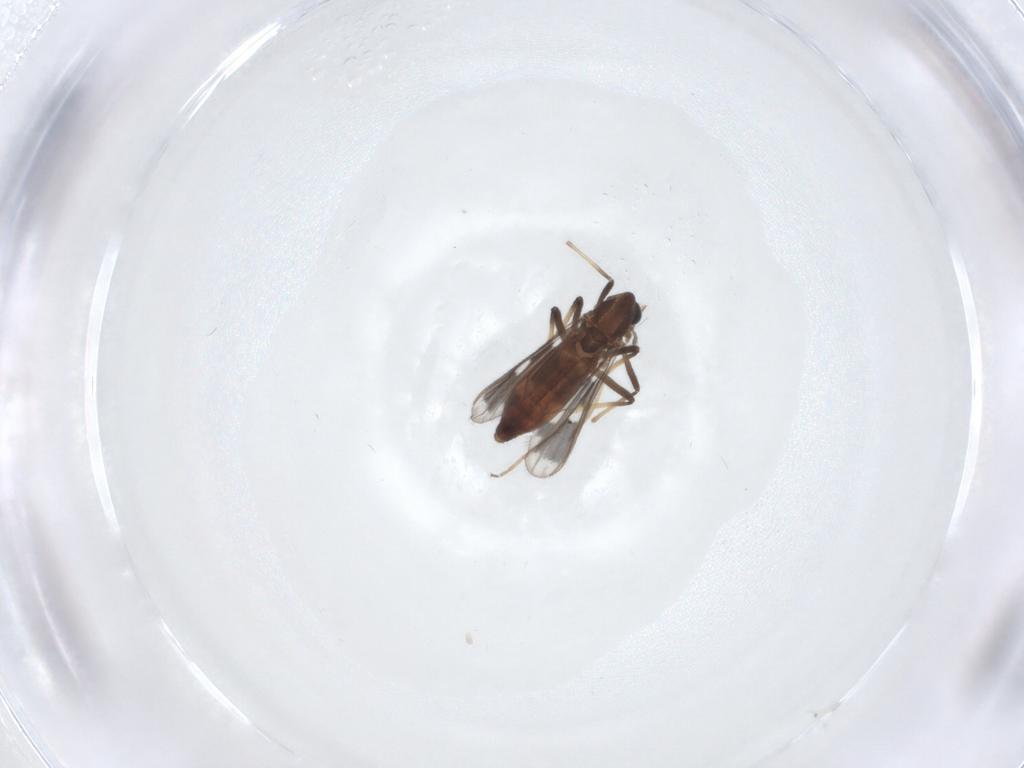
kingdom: Animalia
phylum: Arthropoda
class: Insecta
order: Diptera
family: Chironomidae
